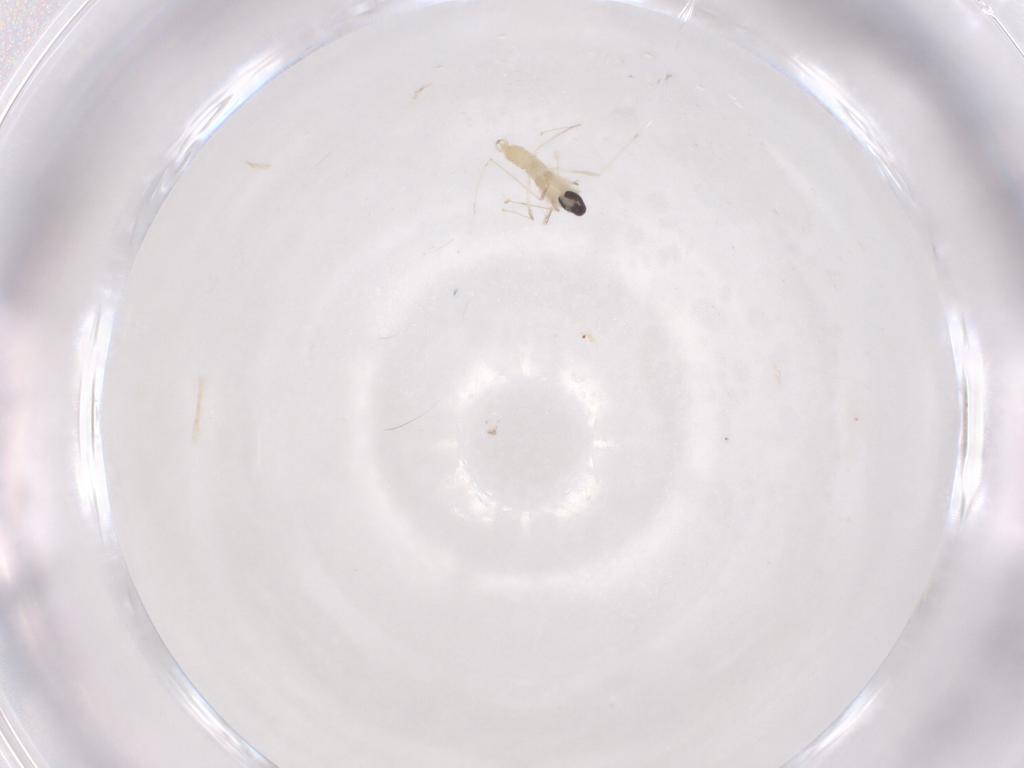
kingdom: Animalia
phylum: Arthropoda
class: Insecta
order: Diptera
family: Cecidomyiidae
